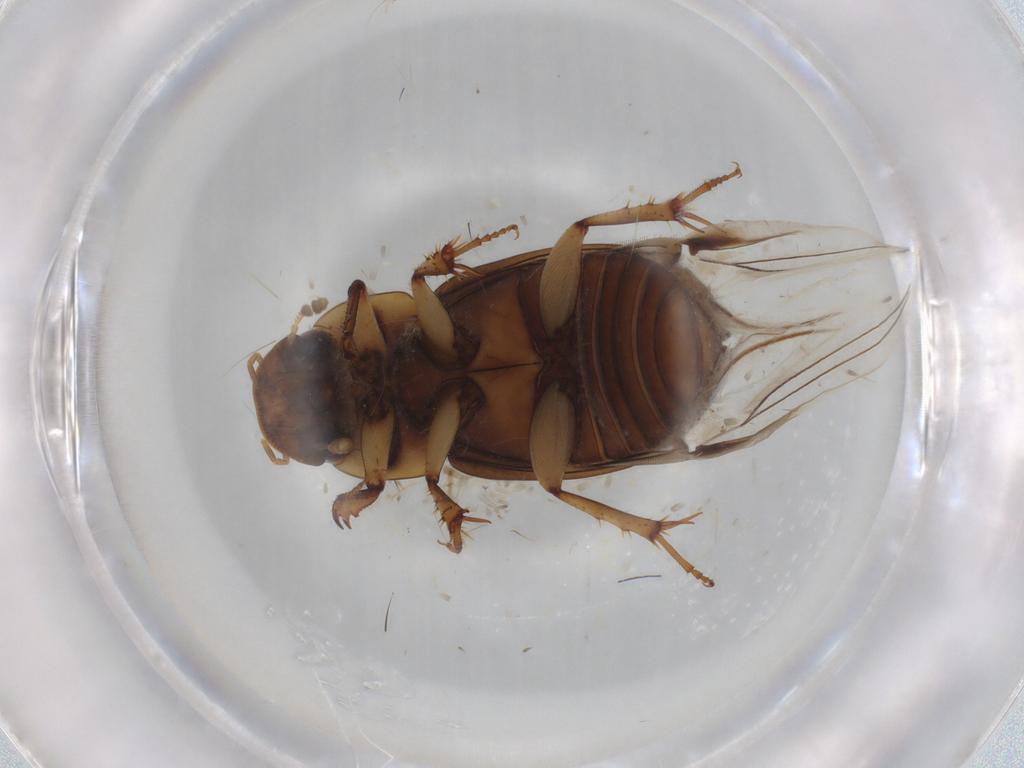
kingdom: Animalia
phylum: Arthropoda
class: Insecta
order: Coleoptera
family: Scarabaeidae
